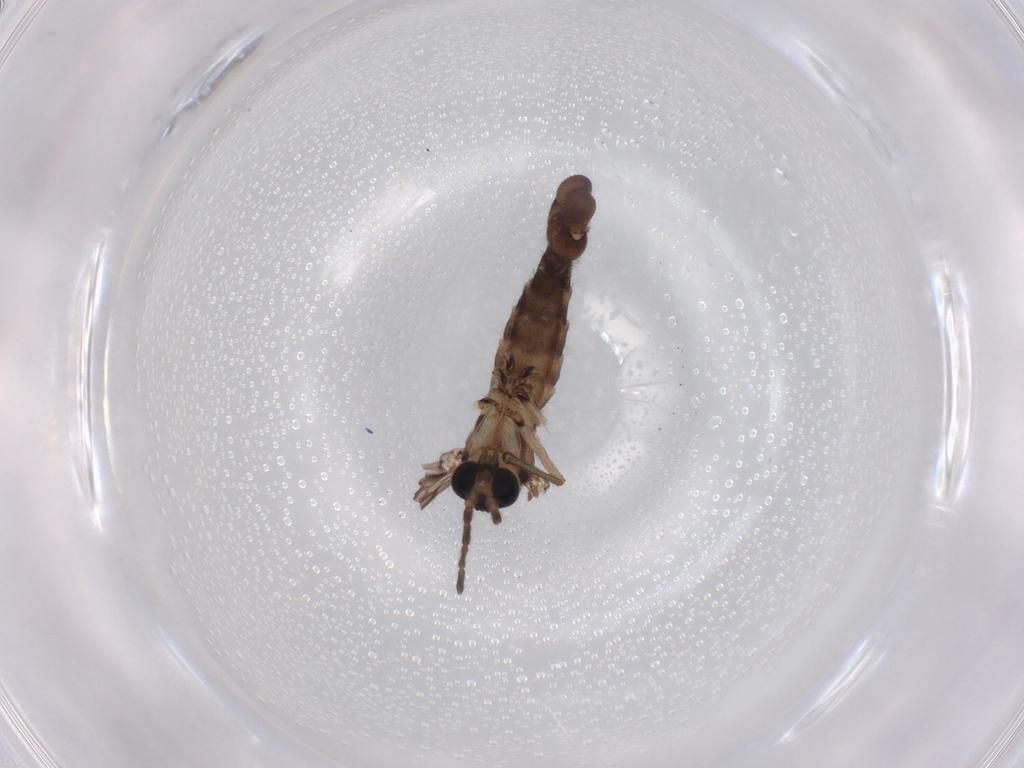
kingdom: Animalia
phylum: Arthropoda
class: Insecta
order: Diptera
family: Sciaridae
